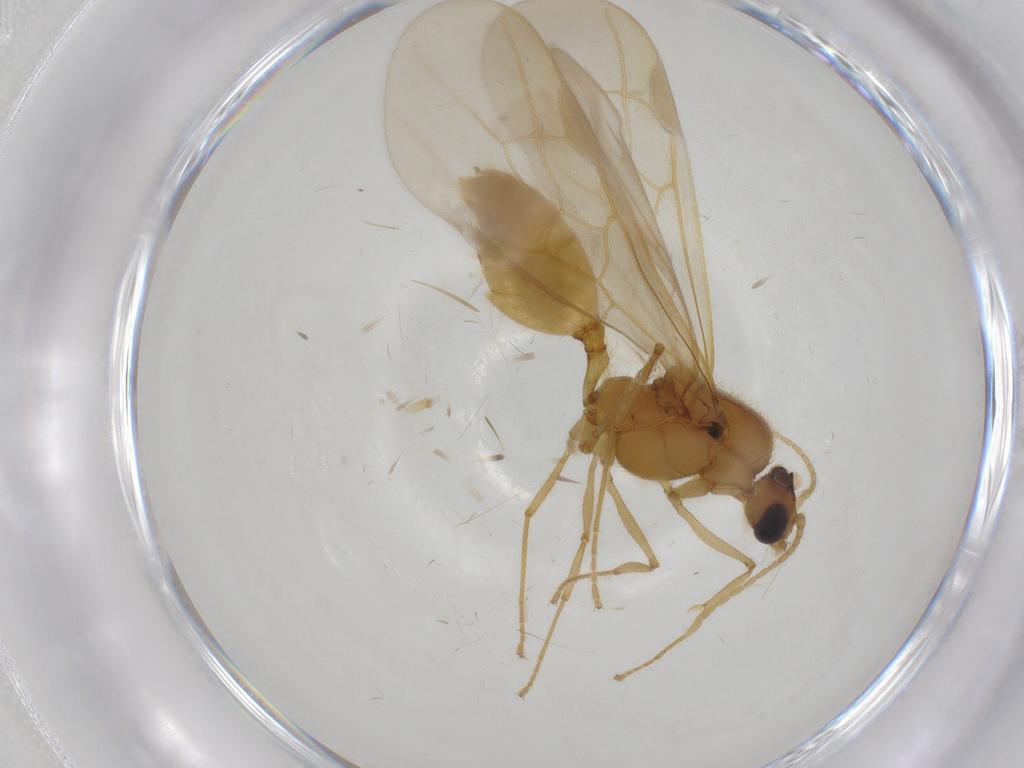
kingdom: Animalia
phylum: Arthropoda
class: Insecta
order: Hymenoptera
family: Formicidae
